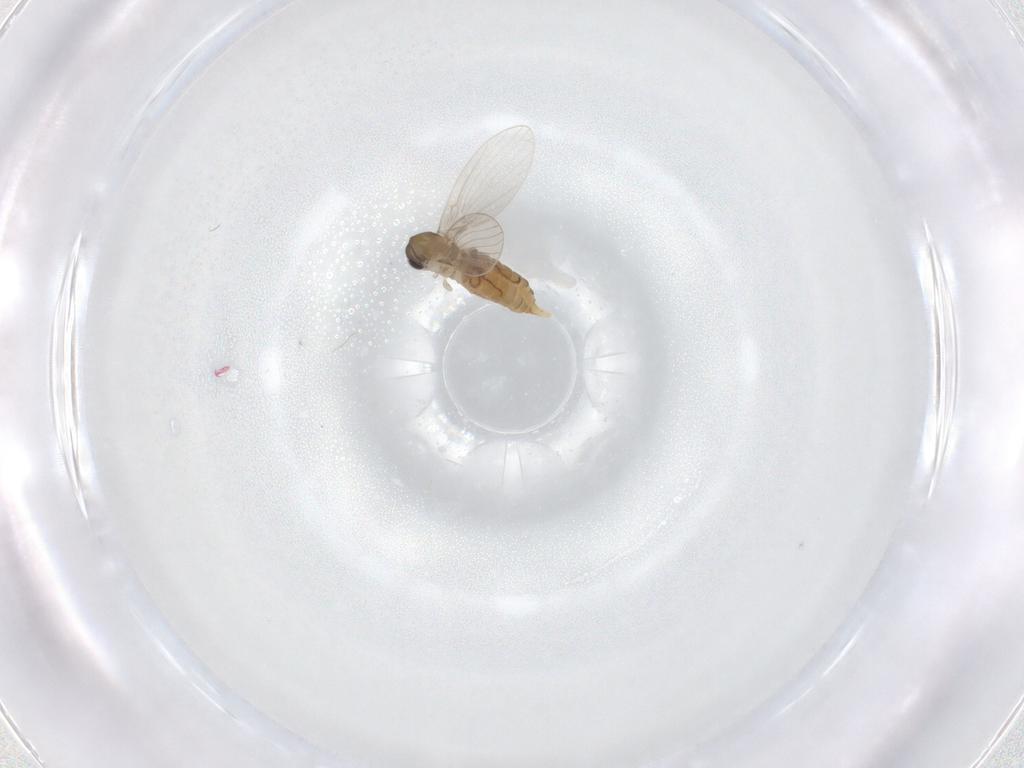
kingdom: Animalia
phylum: Arthropoda
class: Insecta
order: Diptera
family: Psychodidae
